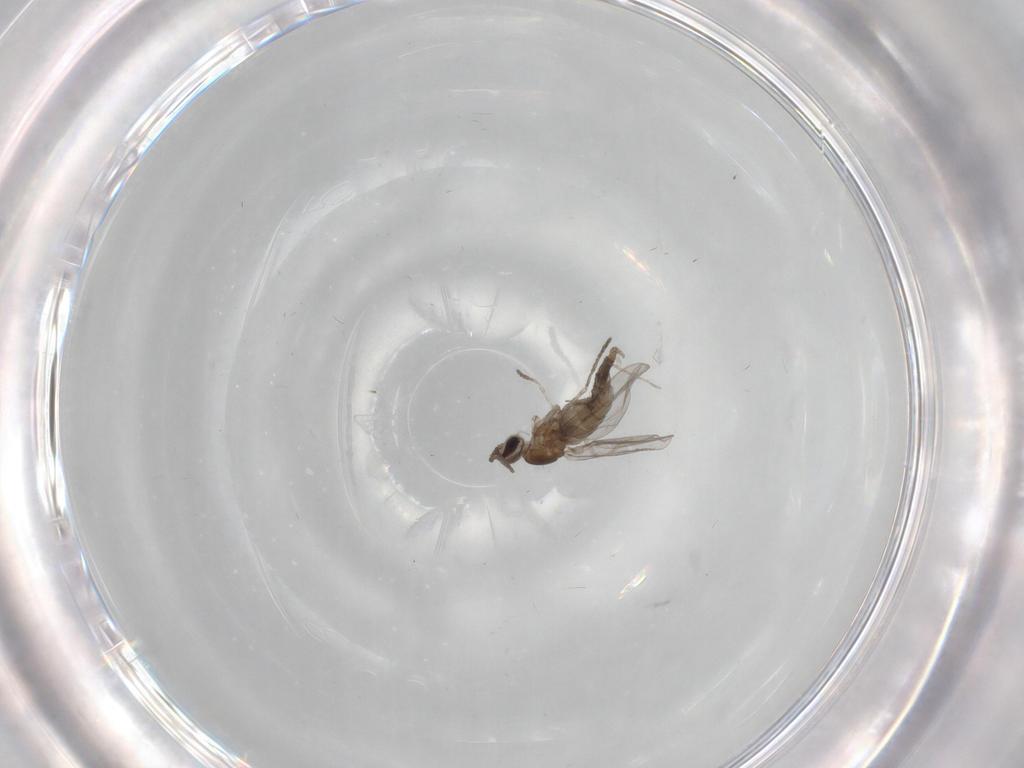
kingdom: Animalia
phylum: Arthropoda
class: Insecta
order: Diptera
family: Cecidomyiidae
